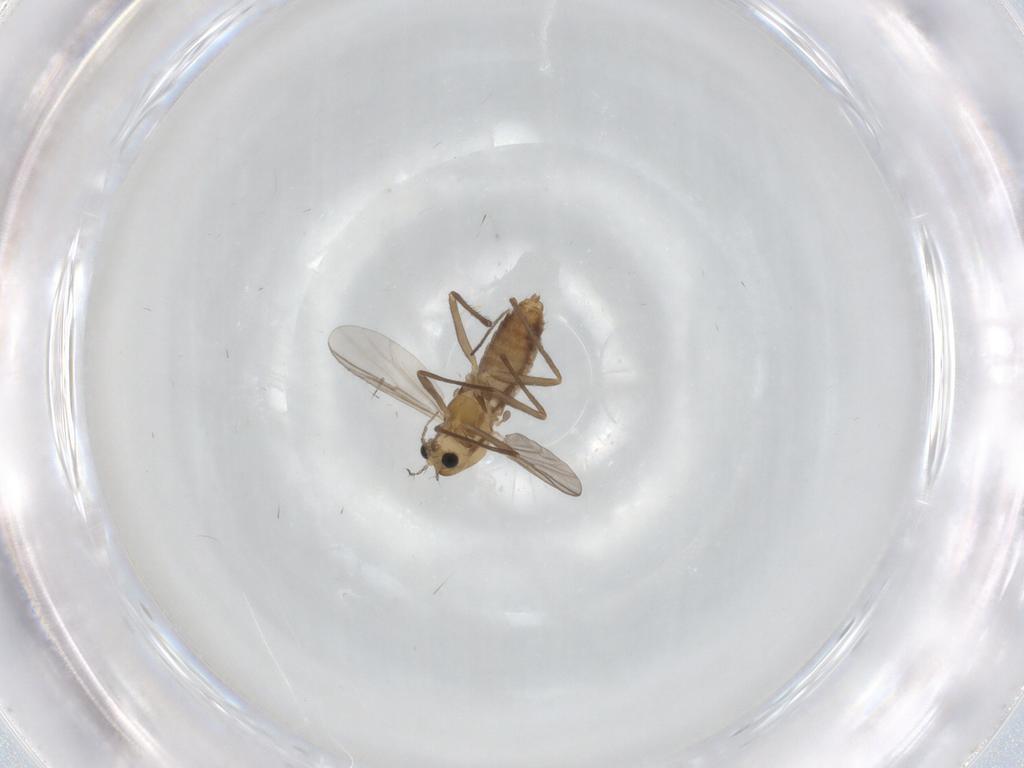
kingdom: Animalia
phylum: Arthropoda
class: Insecta
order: Diptera
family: Chironomidae
